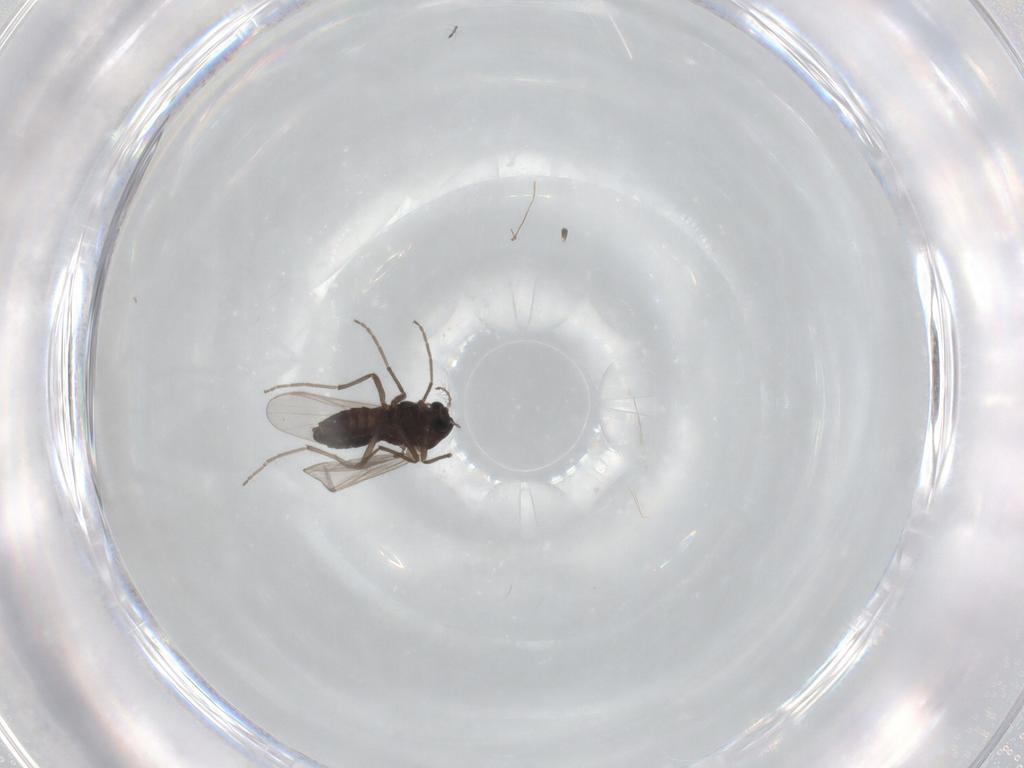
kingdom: Animalia
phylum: Arthropoda
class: Insecta
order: Diptera
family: Chironomidae
